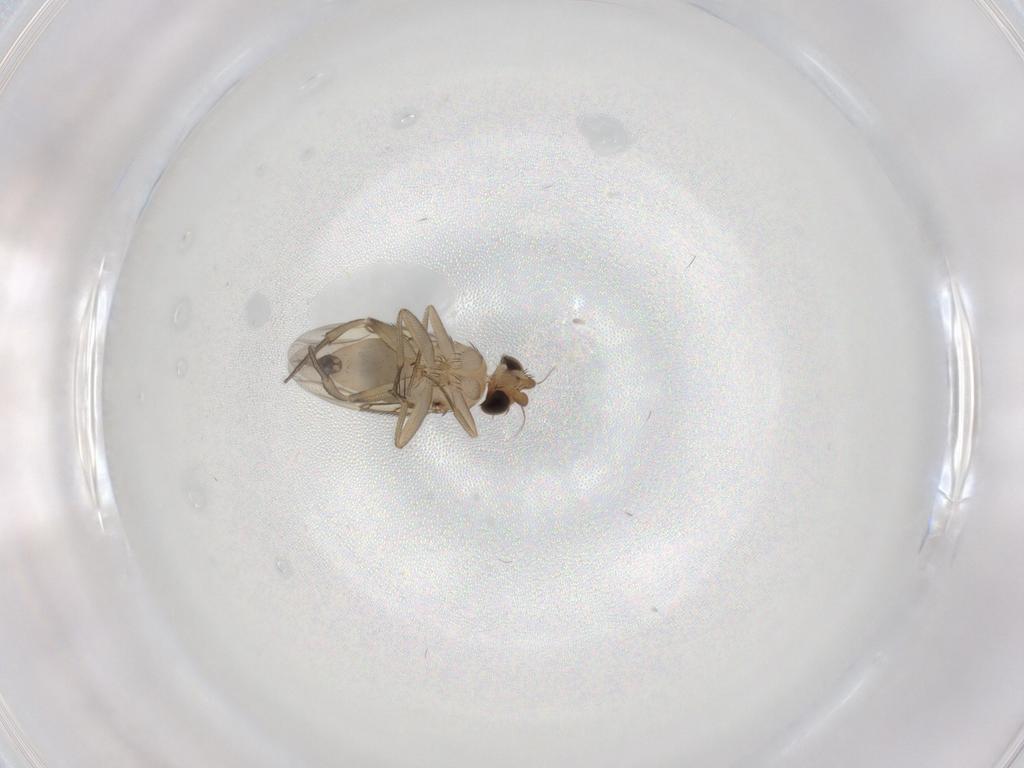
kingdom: Animalia
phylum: Arthropoda
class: Insecta
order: Diptera
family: Phoridae
